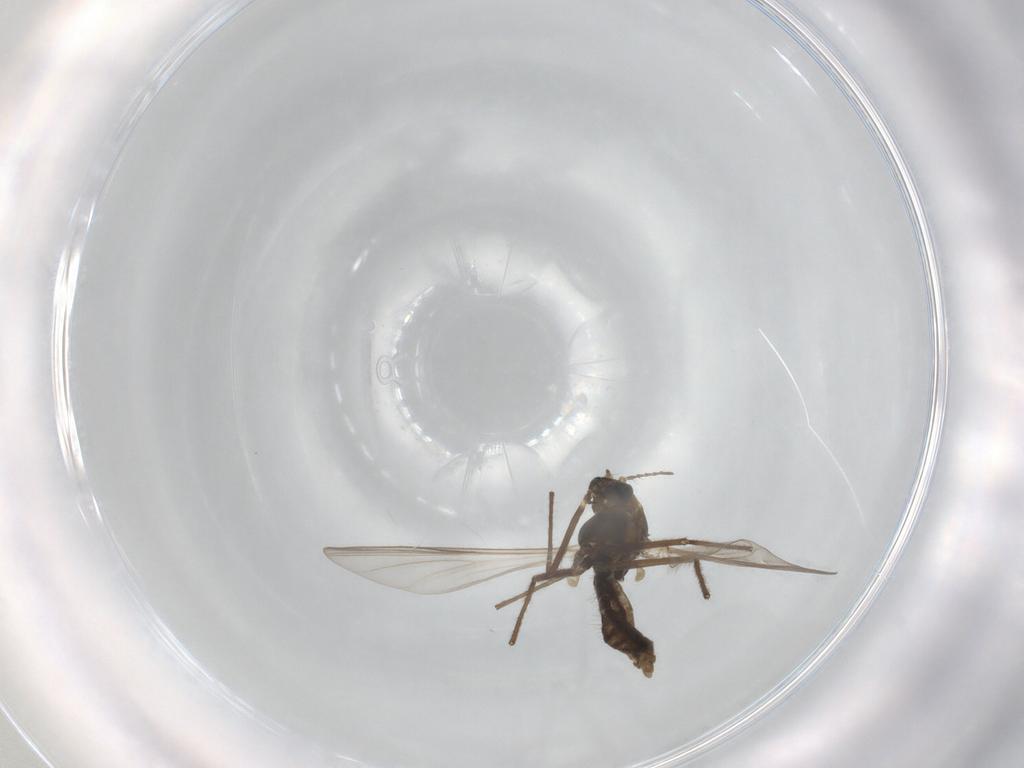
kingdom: Animalia
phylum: Arthropoda
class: Insecta
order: Diptera
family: Chironomidae
